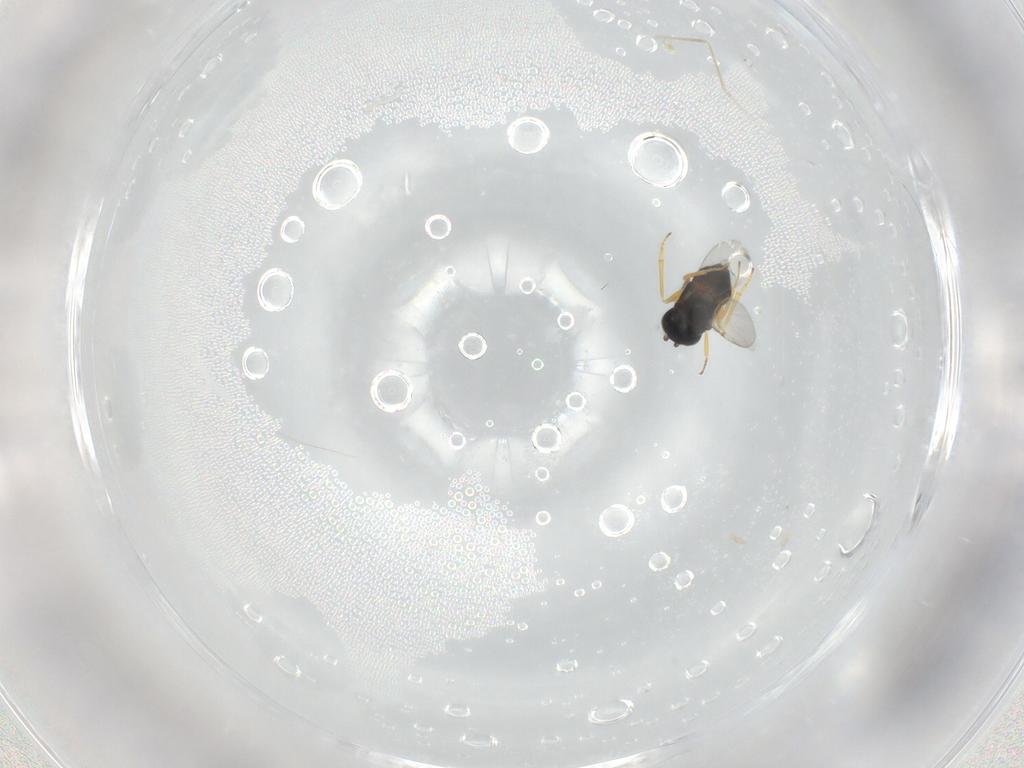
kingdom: Animalia
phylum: Arthropoda
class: Insecta
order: Hymenoptera
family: Encyrtidae
